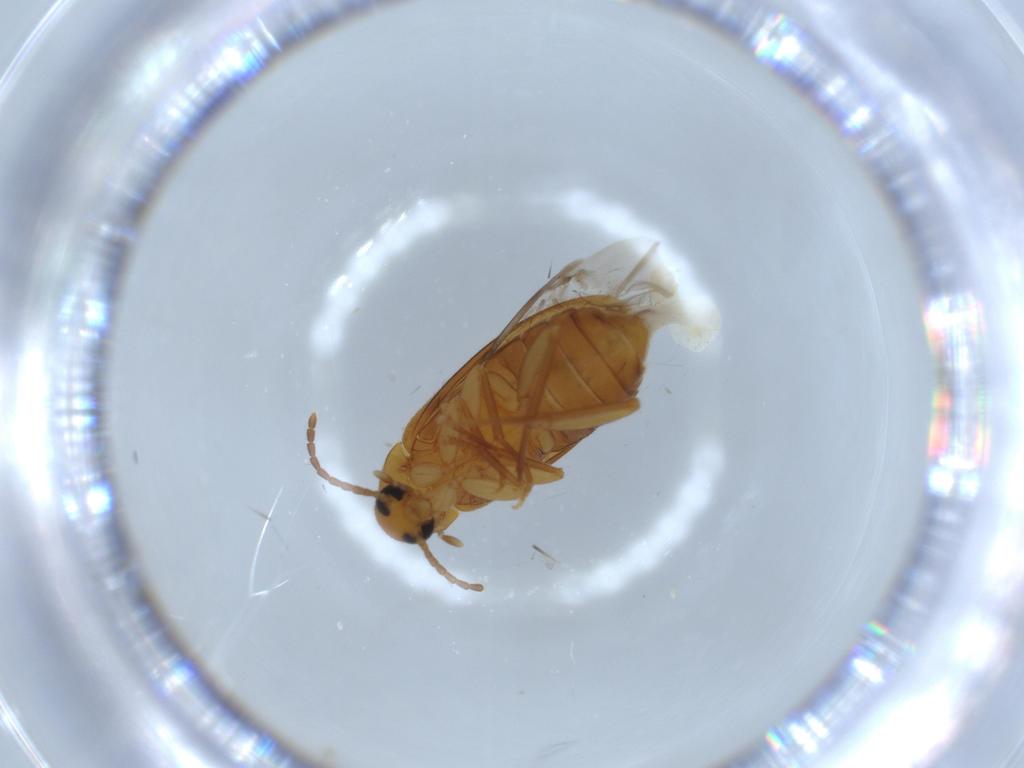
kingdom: Animalia
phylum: Arthropoda
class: Insecta
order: Coleoptera
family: Scraptiidae
